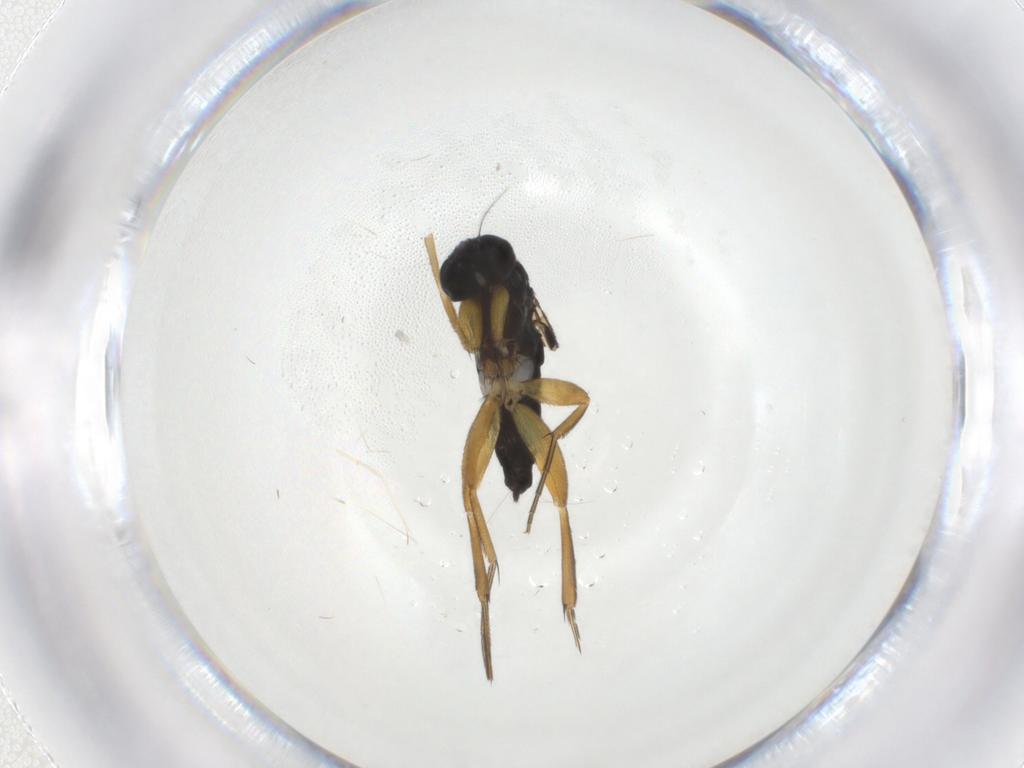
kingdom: Animalia
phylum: Arthropoda
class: Insecta
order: Diptera
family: Cecidomyiidae
